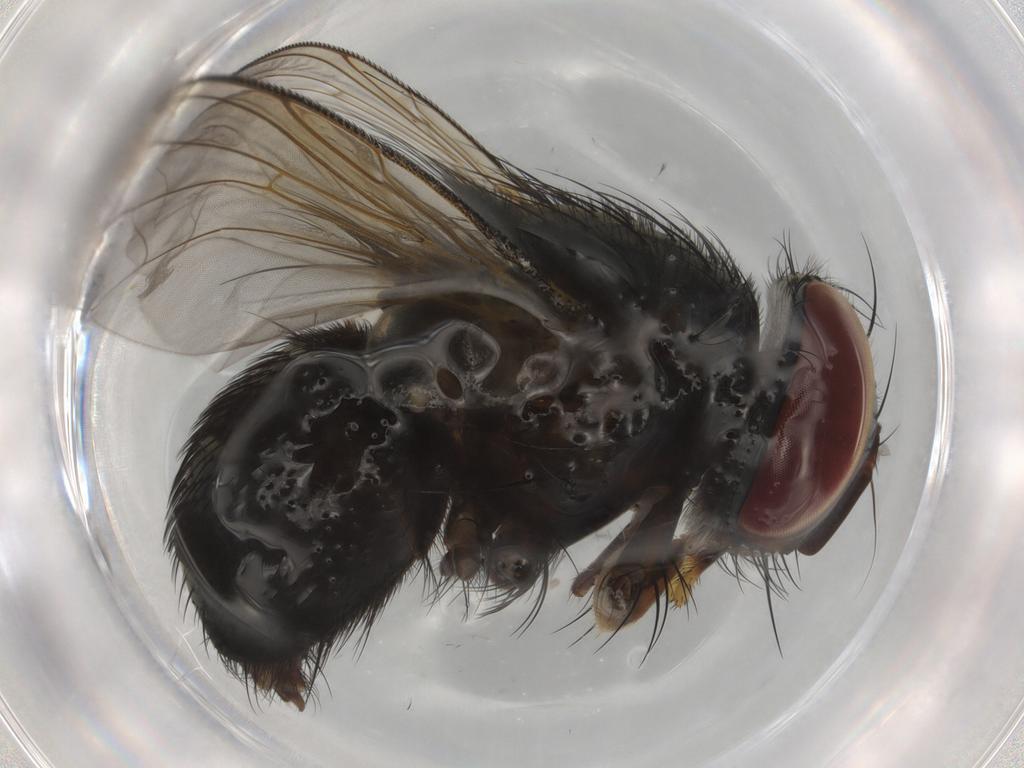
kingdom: Animalia
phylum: Arthropoda
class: Insecta
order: Diptera
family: Tachinidae
